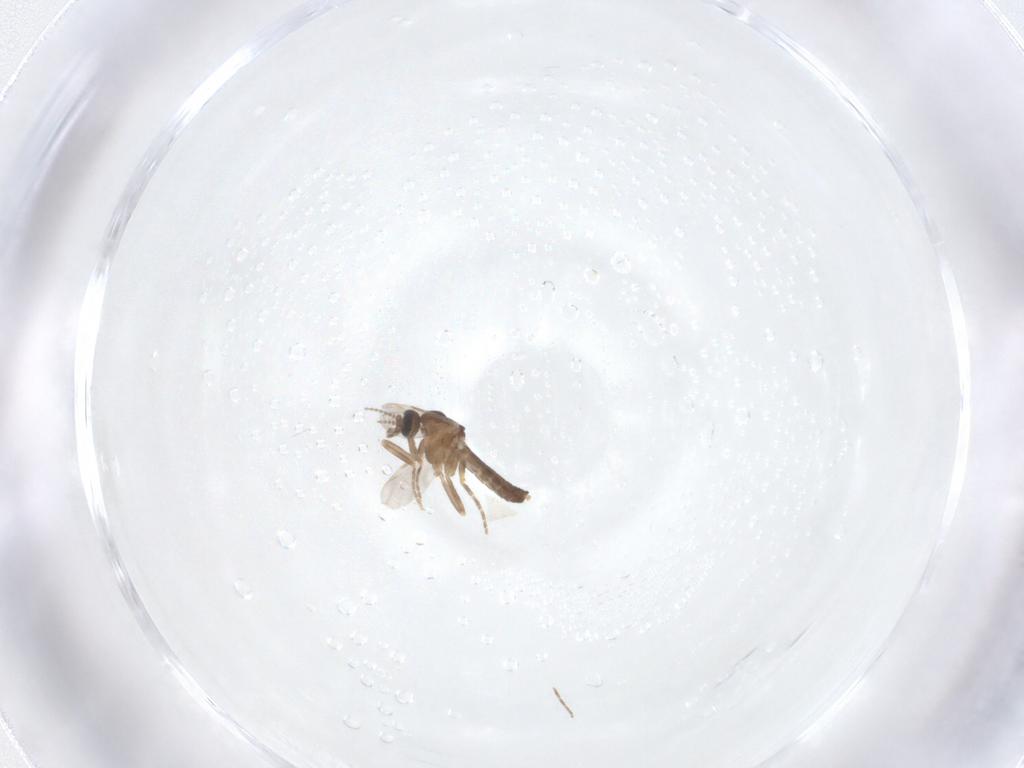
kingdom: Animalia
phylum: Arthropoda
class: Insecta
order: Diptera
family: Ceratopogonidae
